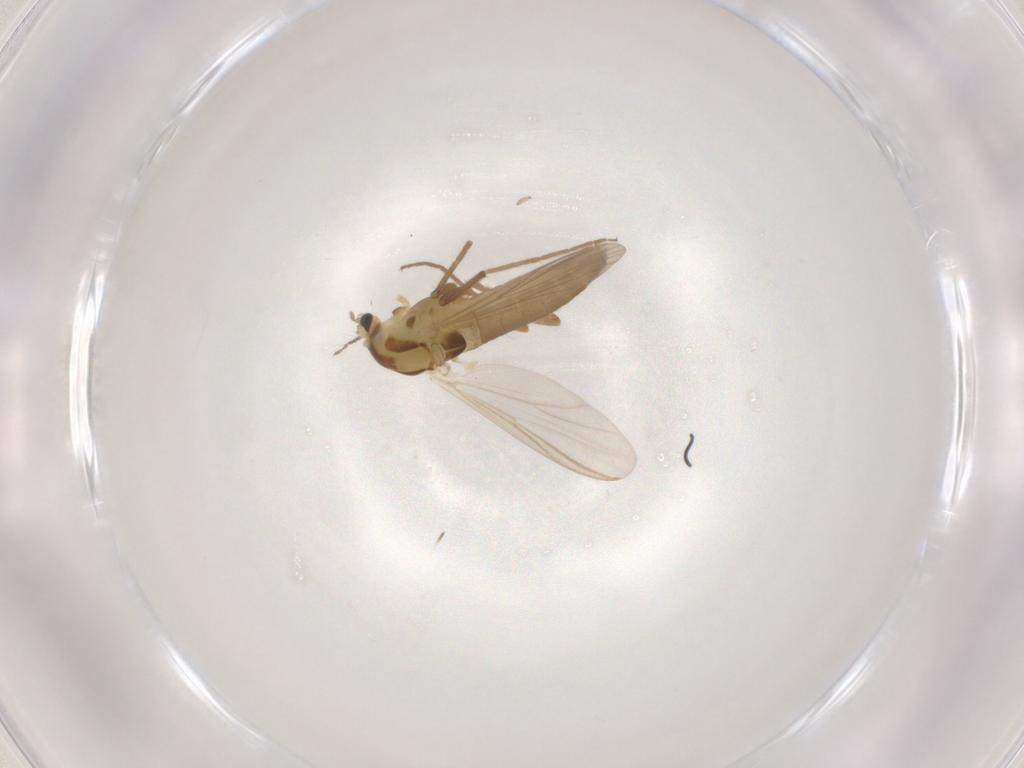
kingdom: Animalia
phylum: Arthropoda
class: Insecta
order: Diptera
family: Chironomidae
